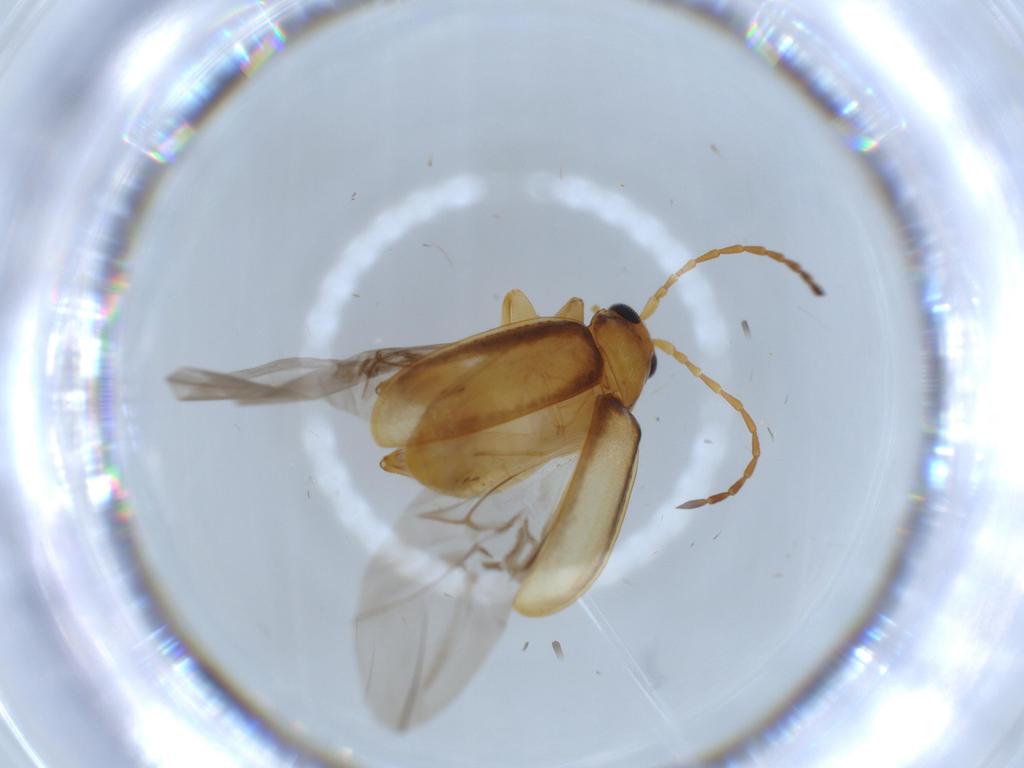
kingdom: Animalia
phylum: Arthropoda
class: Insecta
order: Coleoptera
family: Chrysomelidae
